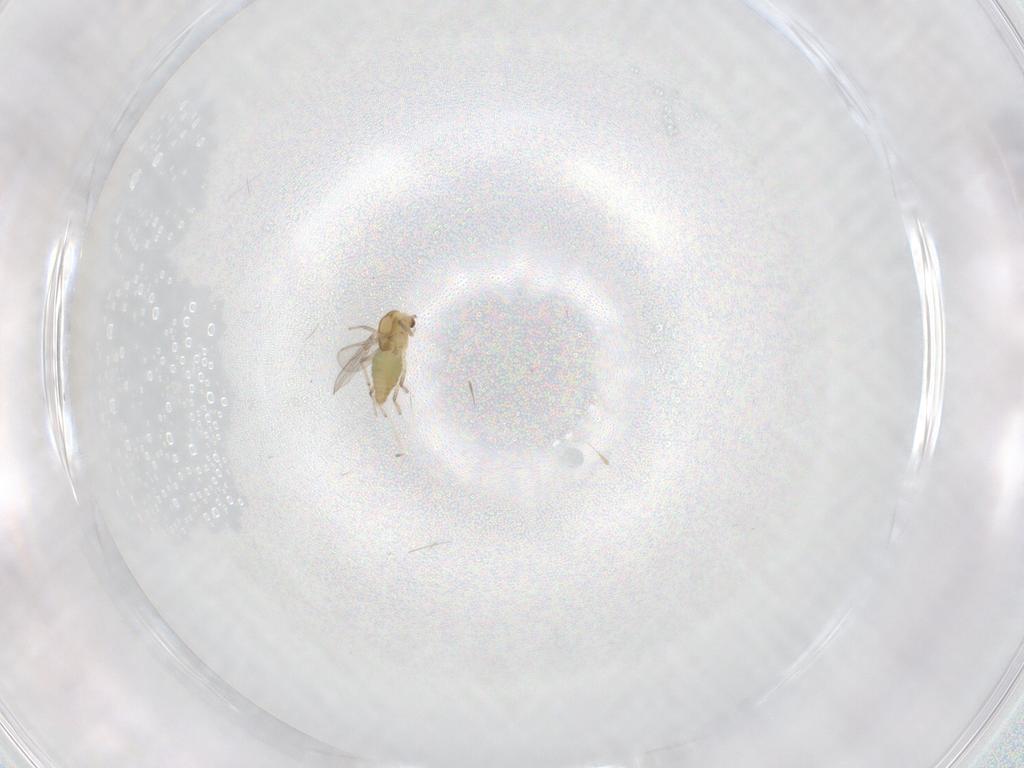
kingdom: Animalia
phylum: Arthropoda
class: Insecta
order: Diptera
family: Chironomidae
